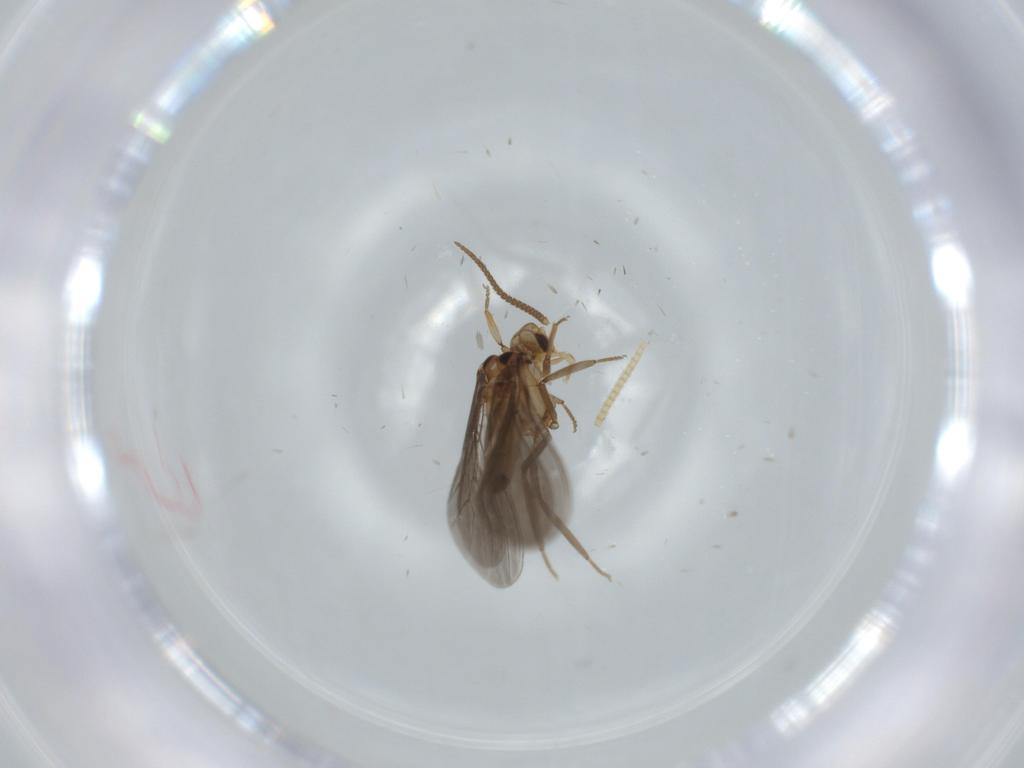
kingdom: Animalia
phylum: Arthropoda
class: Insecta
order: Neuroptera
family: Coniopterygidae
